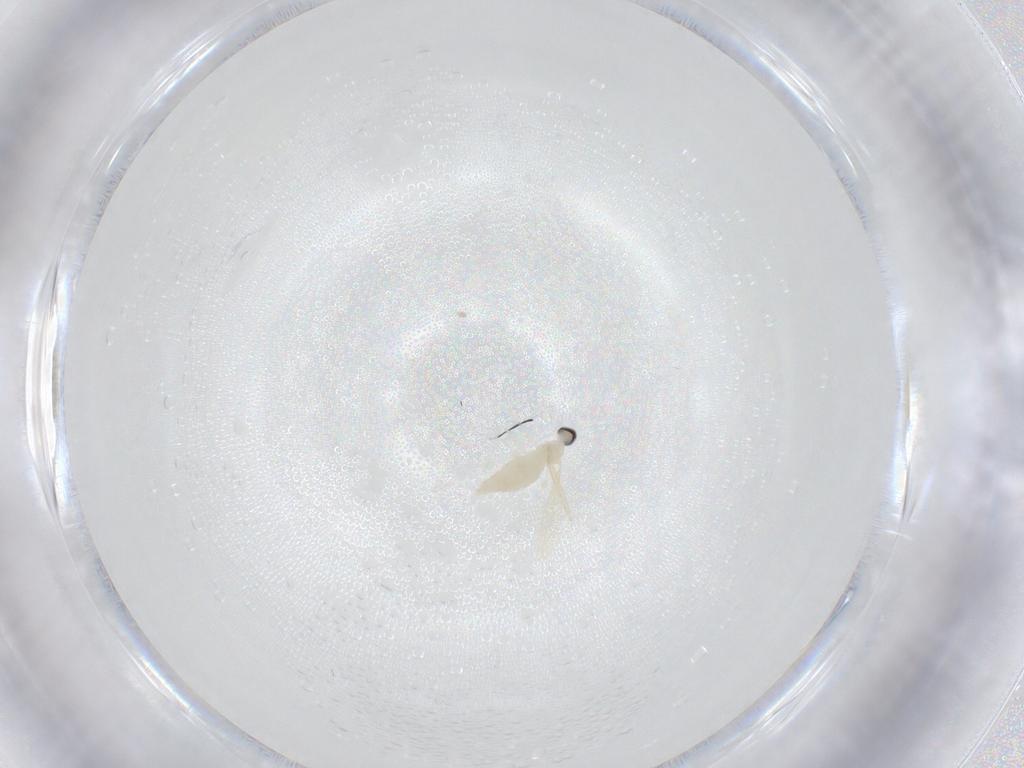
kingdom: Animalia
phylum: Arthropoda
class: Insecta
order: Diptera
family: Cecidomyiidae
